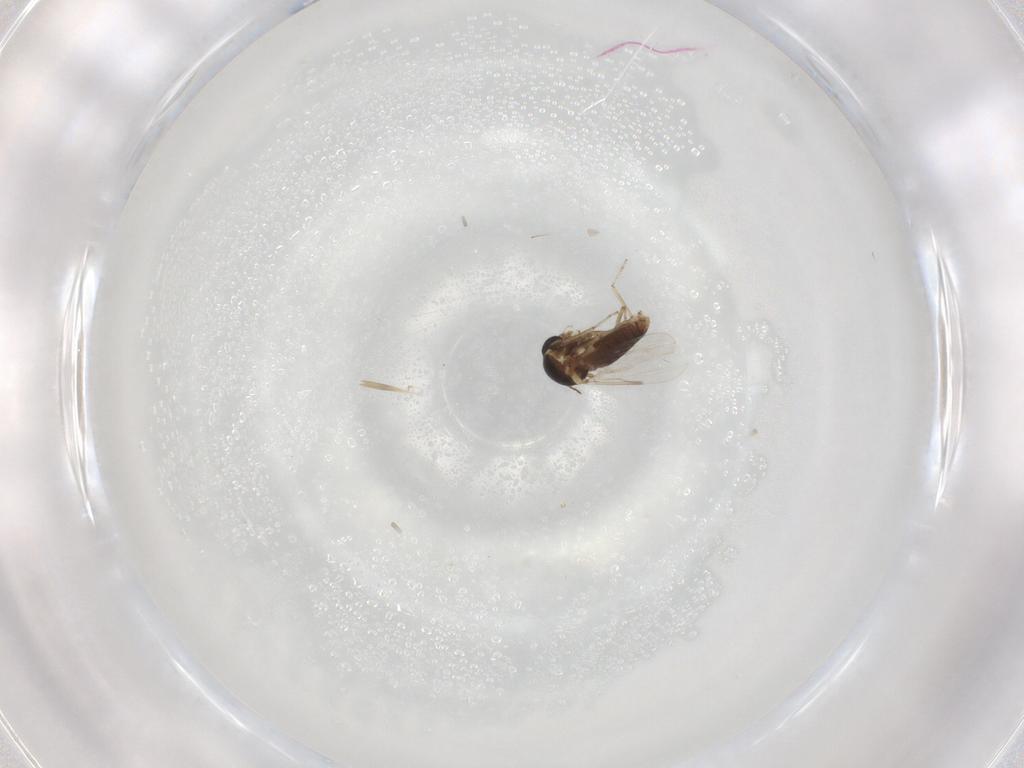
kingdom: Animalia
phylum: Arthropoda
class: Insecta
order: Diptera
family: Ceratopogonidae
